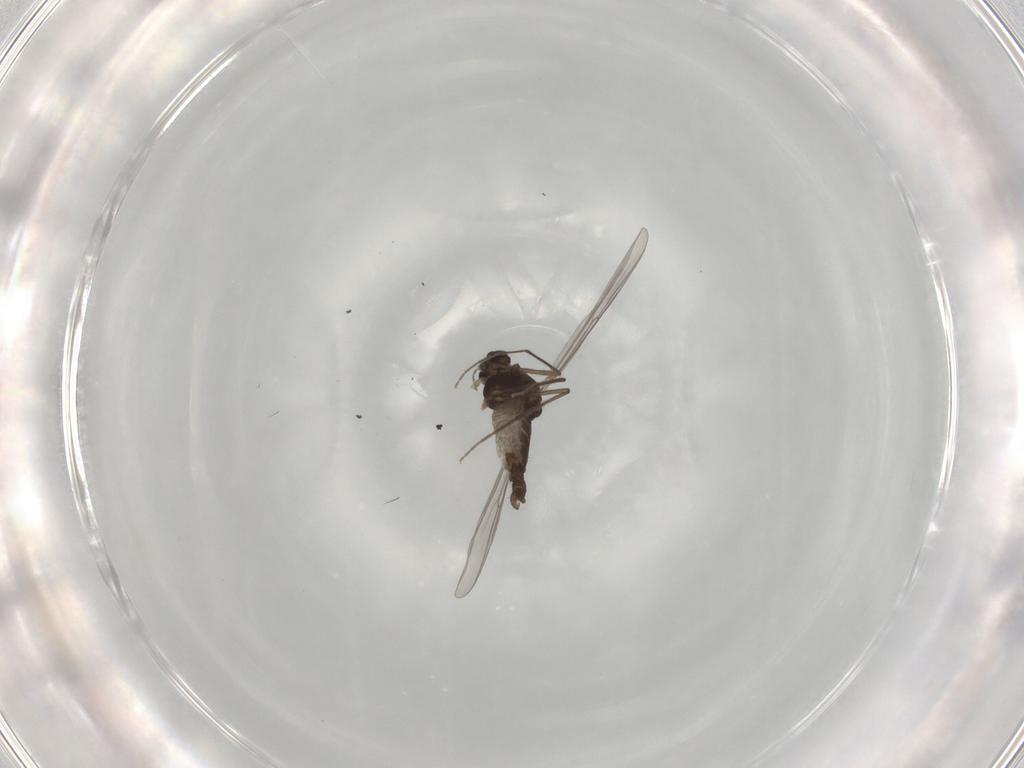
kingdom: Animalia
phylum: Arthropoda
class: Insecta
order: Diptera
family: Chironomidae
